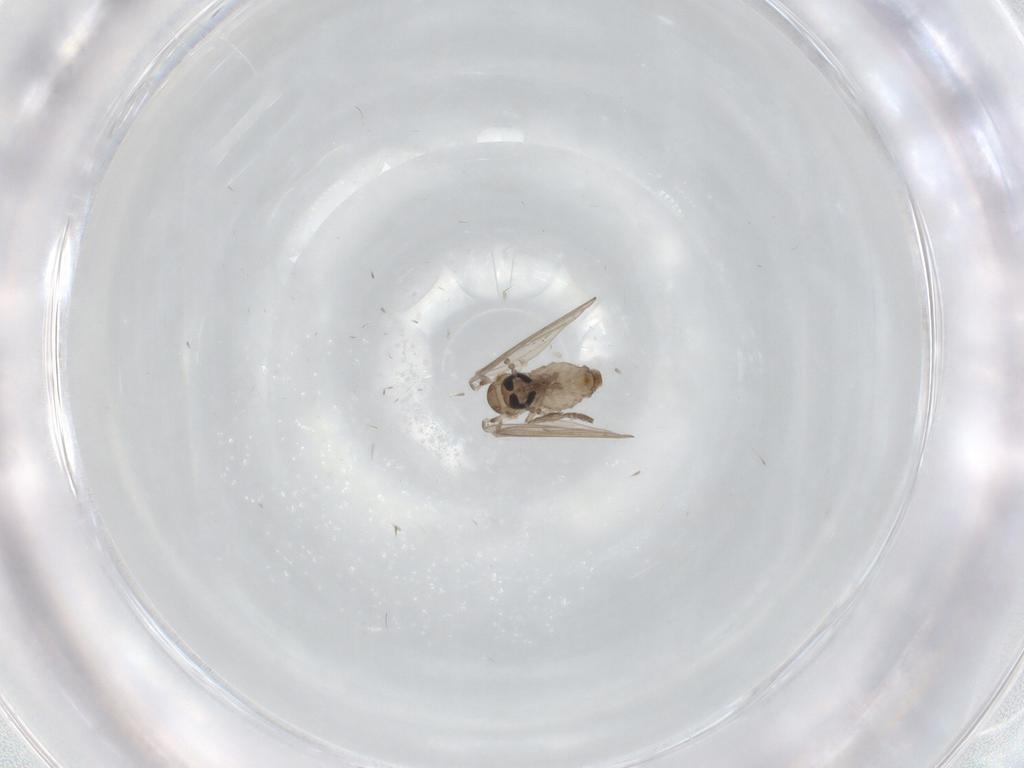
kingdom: Animalia
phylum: Arthropoda
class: Insecta
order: Diptera
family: Psychodidae
